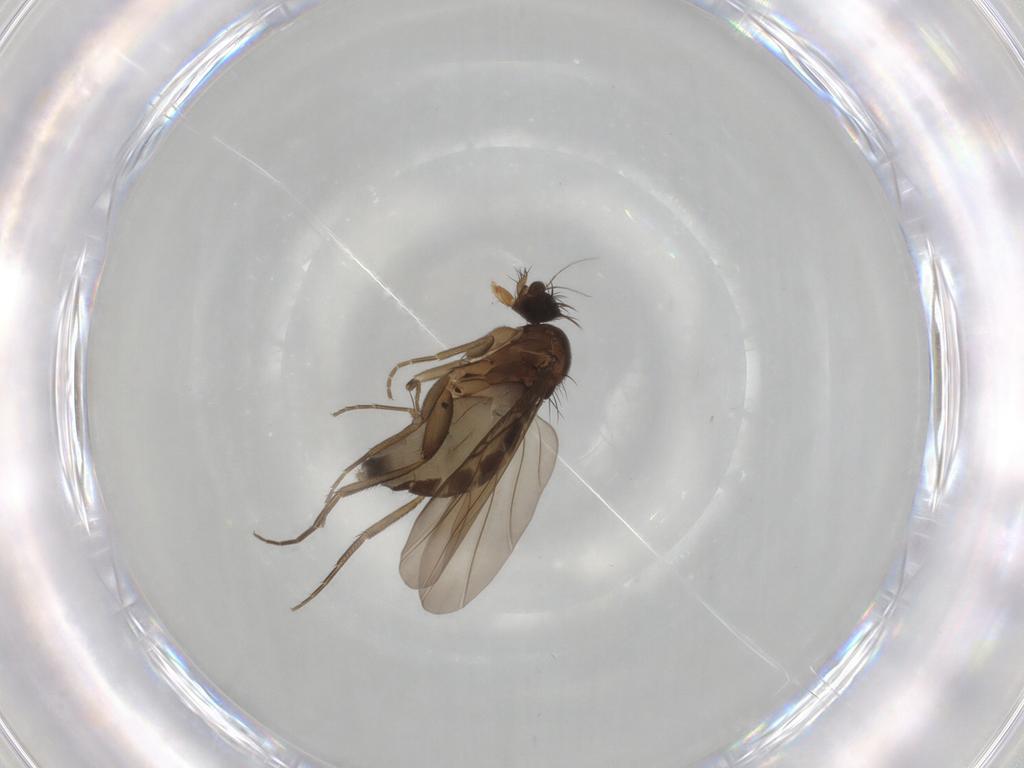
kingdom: Animalia
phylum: Arthropoda
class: Insecta
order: Diptera
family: Phoridae
